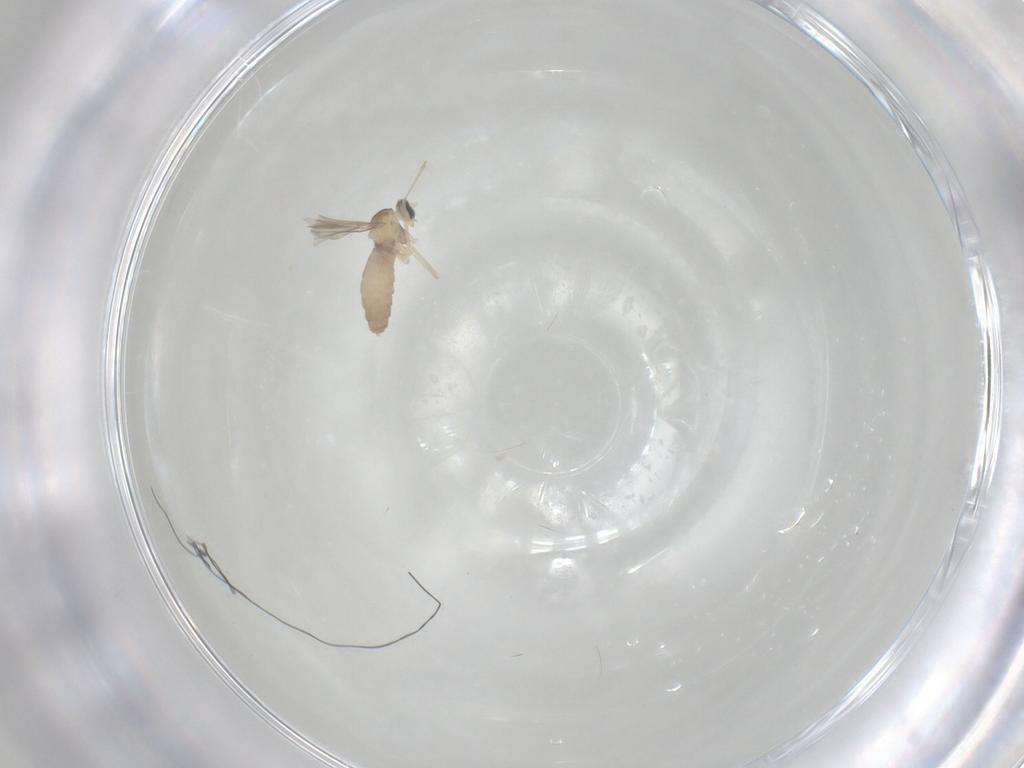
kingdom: Animalia
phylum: Arthropoda
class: Insecta
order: Diptera
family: Cecidomyiidae
